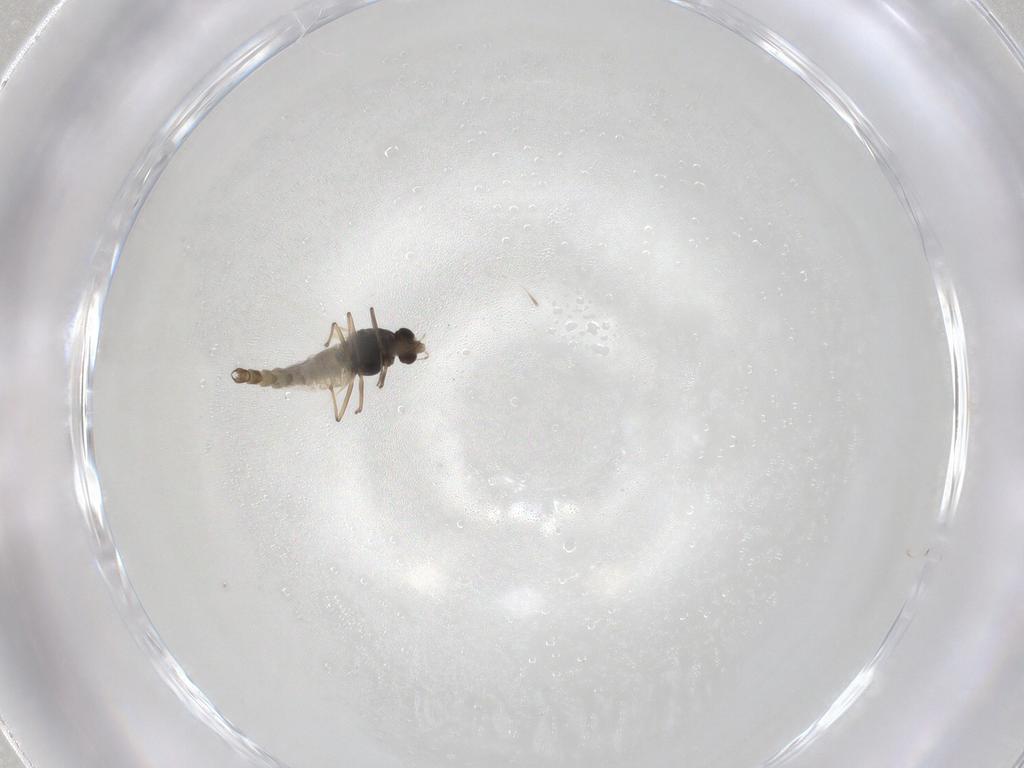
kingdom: Animalia
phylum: Arthropoda
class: Insecta
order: Diptera
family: Chironomidae
